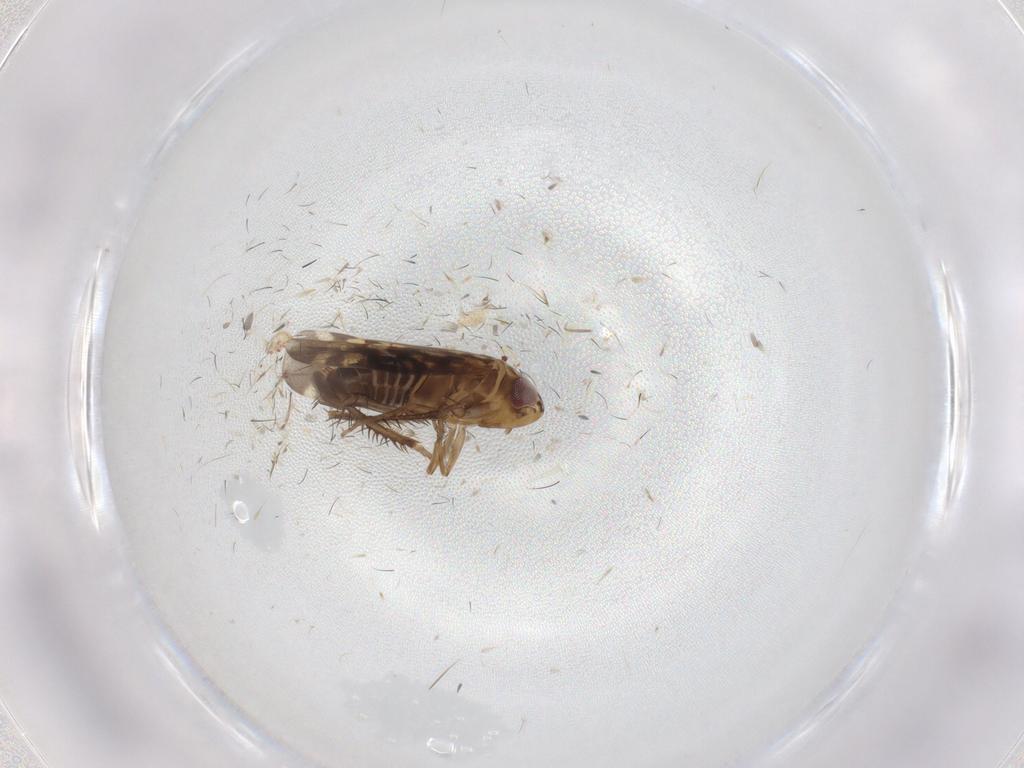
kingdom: Animalia
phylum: Arthropoda
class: Insecta
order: Hemiptera
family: Cicadellidae
